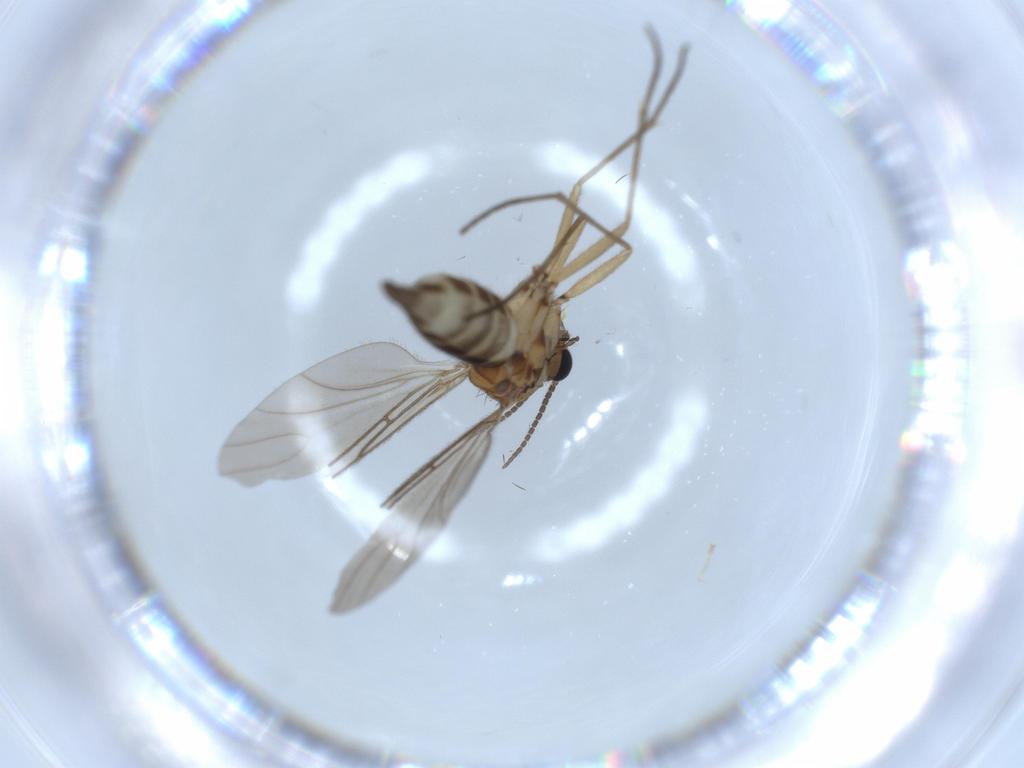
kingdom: Animalia
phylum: Arthropoda
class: Insecta
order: Diptera
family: Sciaridae
